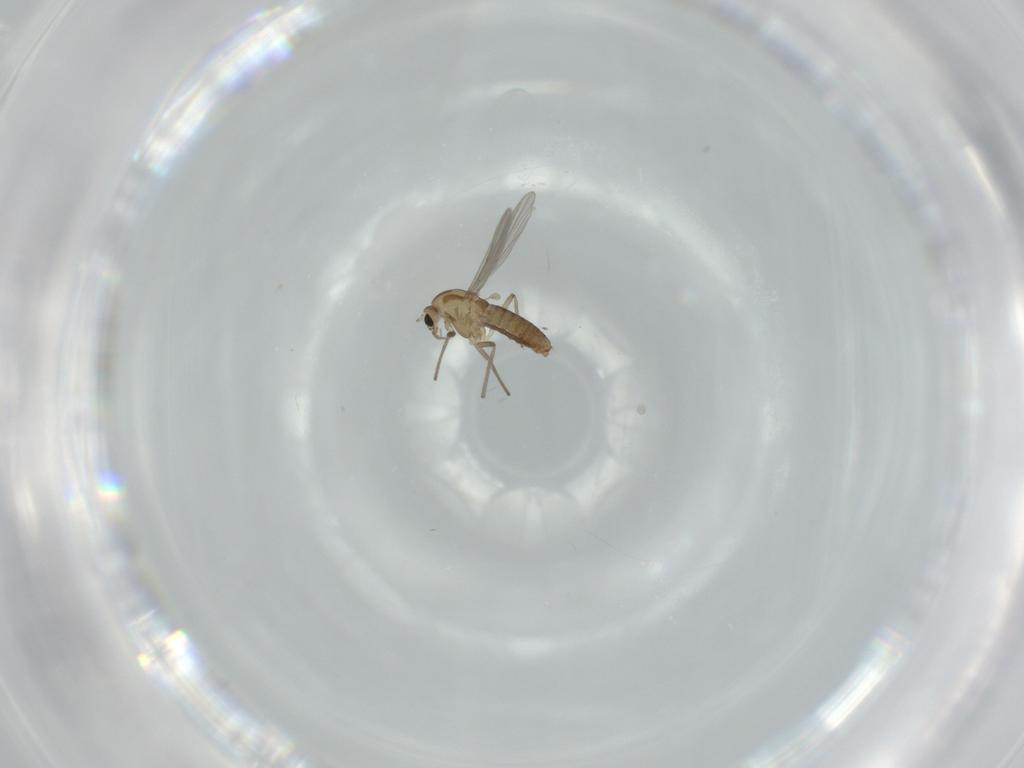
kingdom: Animalia
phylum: Arthropoda
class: Insecta
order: Diptera
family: Chironomidae
